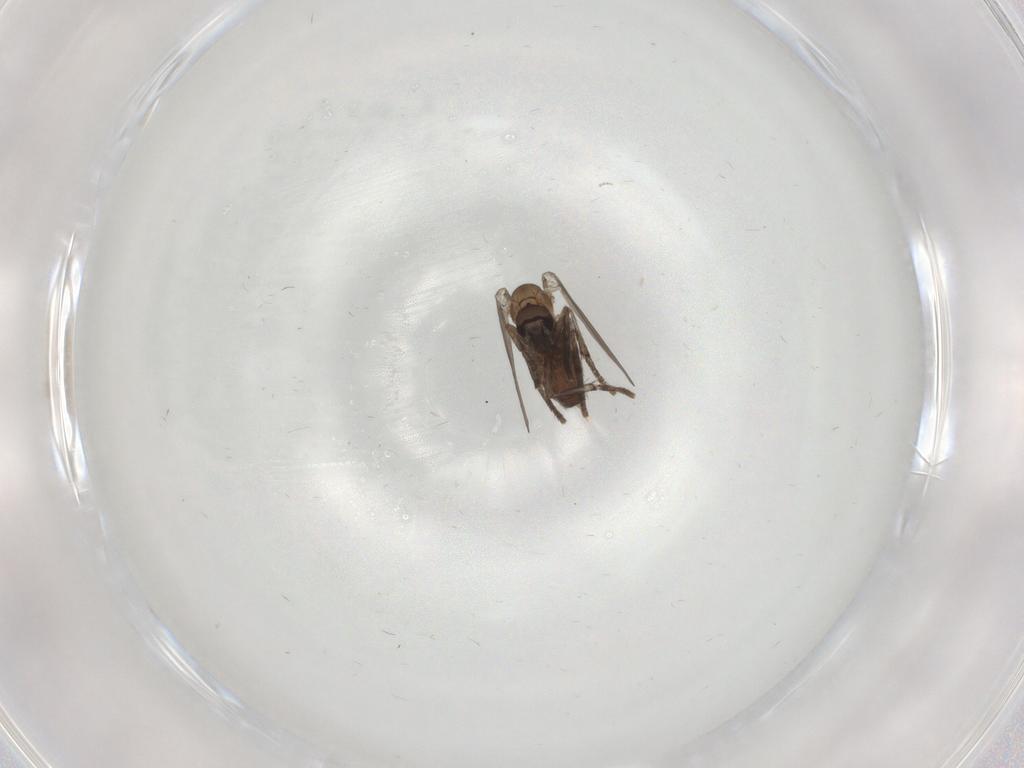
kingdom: Animalia
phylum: Arthropoda
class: Insecta
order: Diptera
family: Psychodidae
